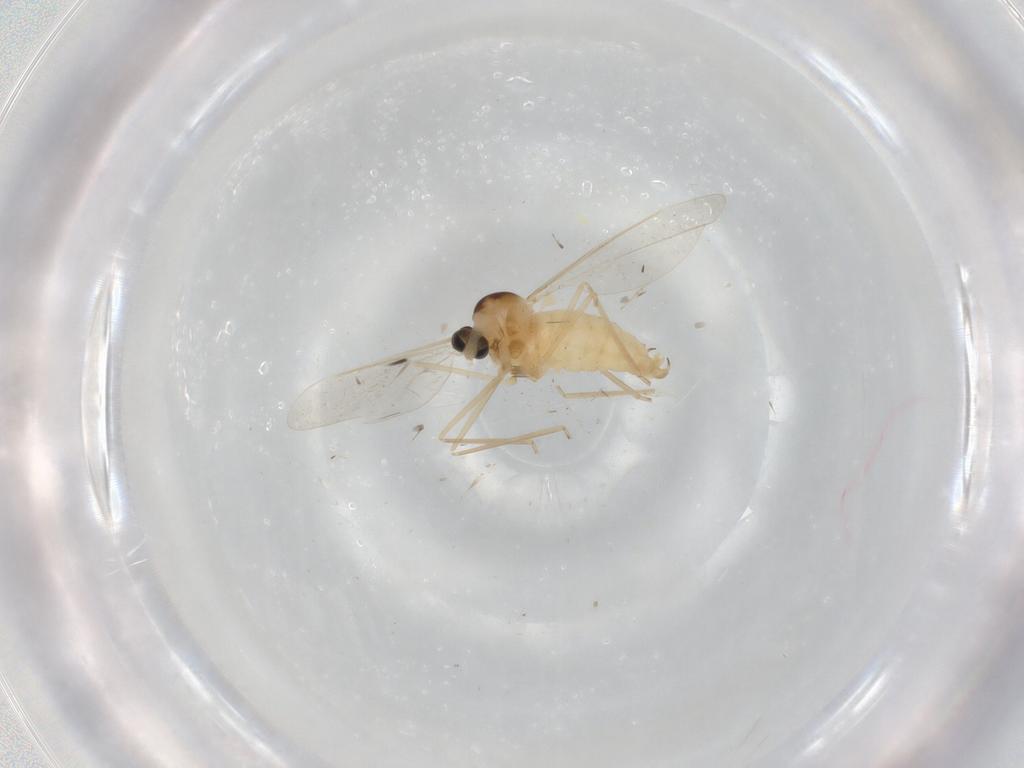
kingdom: Animalia
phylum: Arthropoda
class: Insecta
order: Diptera
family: Cecidomyiidae
